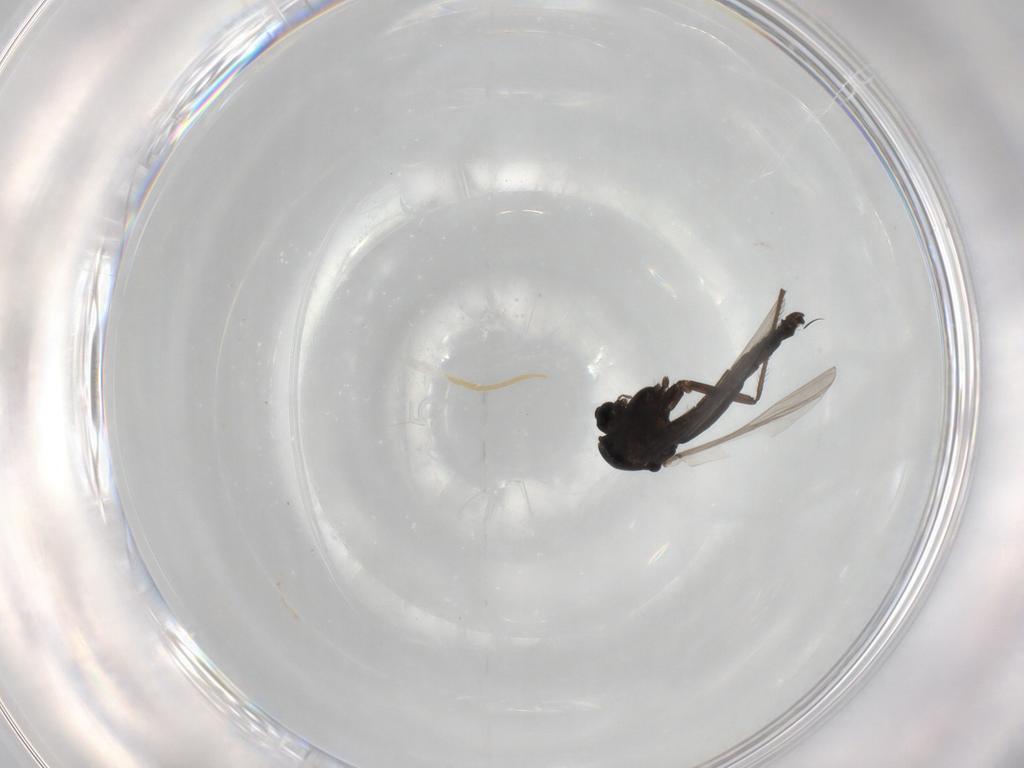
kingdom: Animalia
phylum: Arthropoda
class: Insecta
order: Diptera
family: Chironomidae
